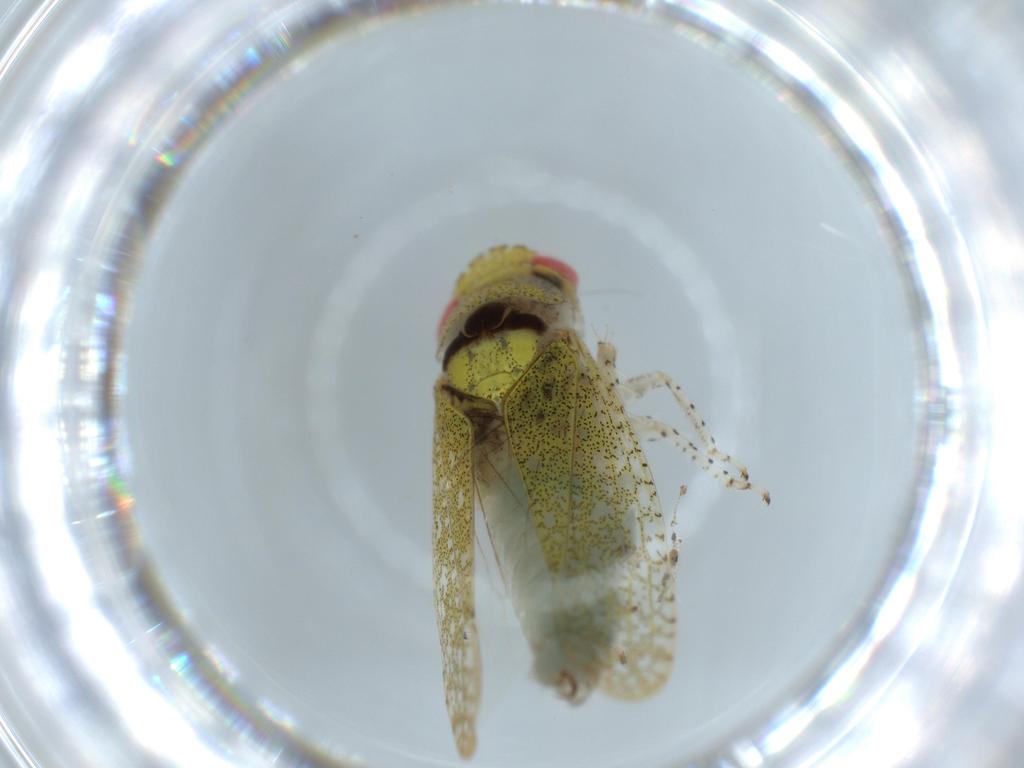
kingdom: Animalia
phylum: Arthropoda
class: Insecta
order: Hemiptera
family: Cicadellidae
